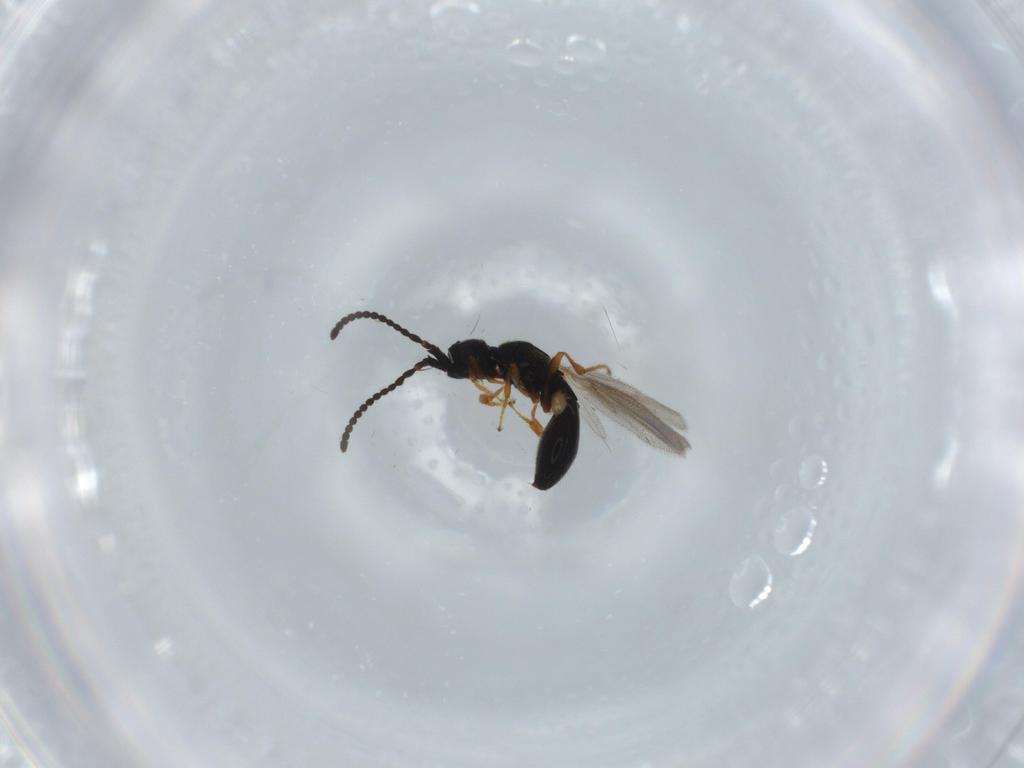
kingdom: Animalia
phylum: Arthropoda
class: Insecta
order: Hymenoptera
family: Diapriidae
